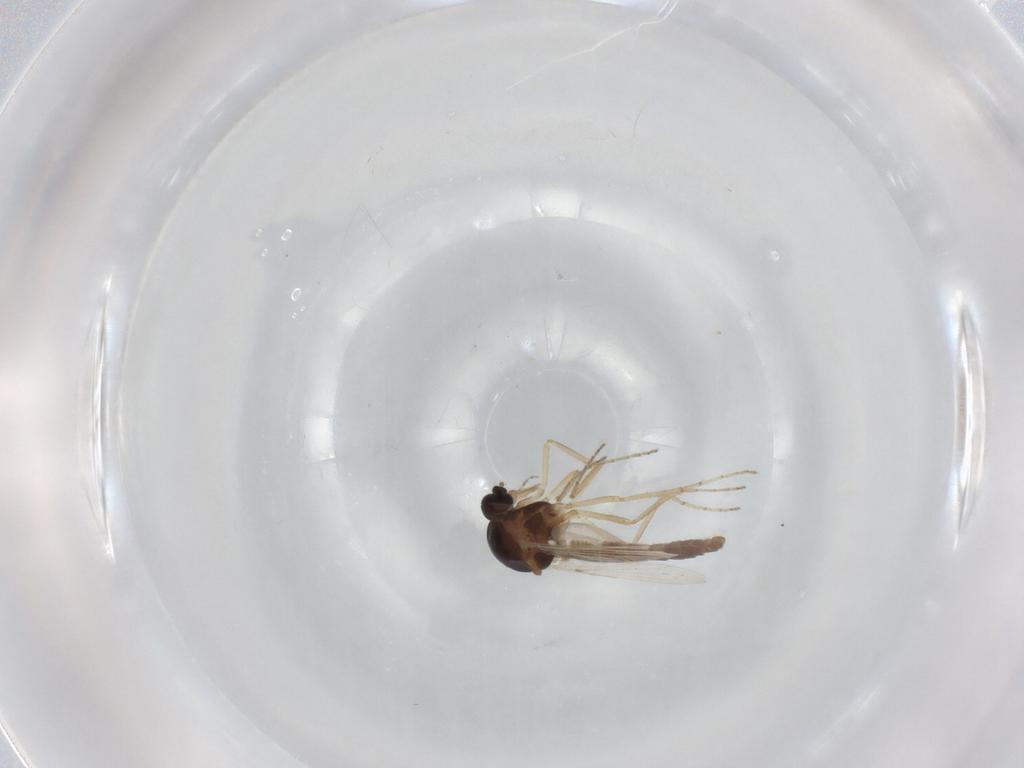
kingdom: Animalia
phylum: Arthropoda
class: Insecta
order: Diptera
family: Ceratopogonidae
